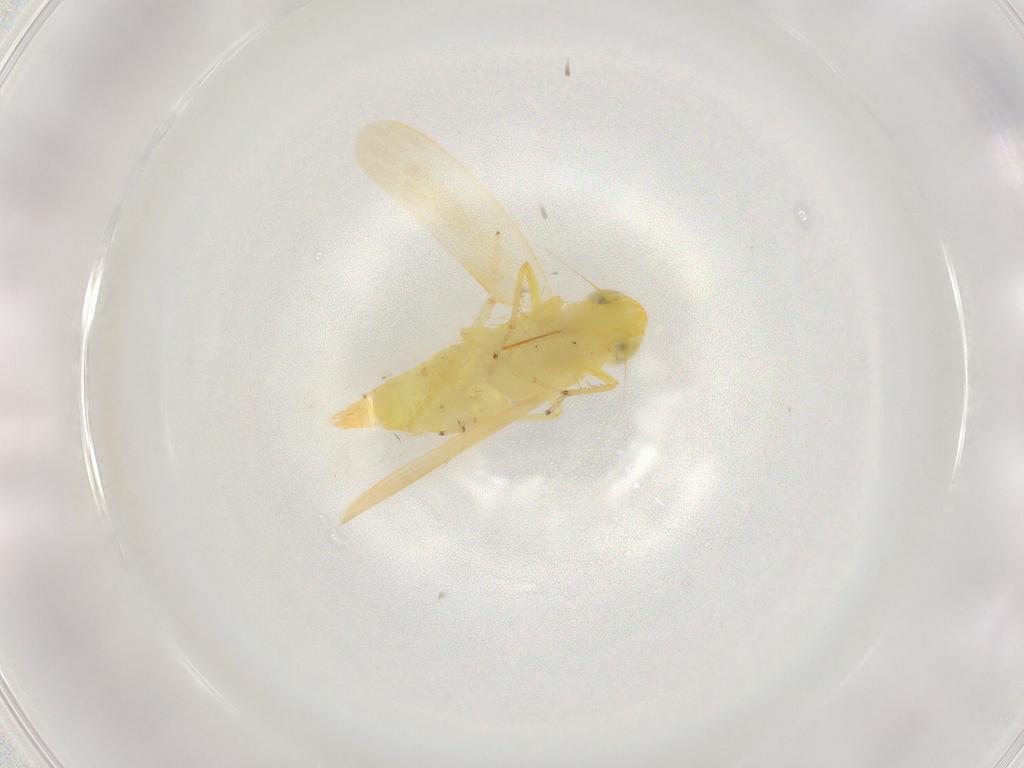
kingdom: Animalia
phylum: Arthropoda
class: Insecta
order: Hemiptera
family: Cicadellidae
